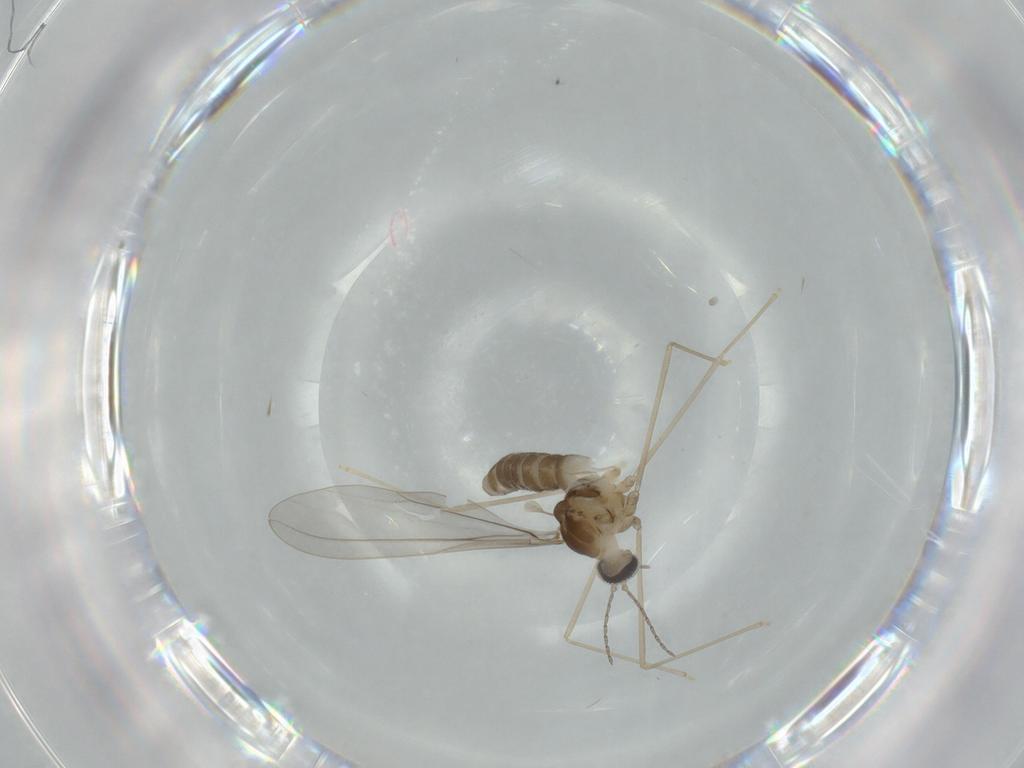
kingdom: Animalia
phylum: Arthropoda
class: Insecta
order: Diptera
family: Cecidomyiidae
